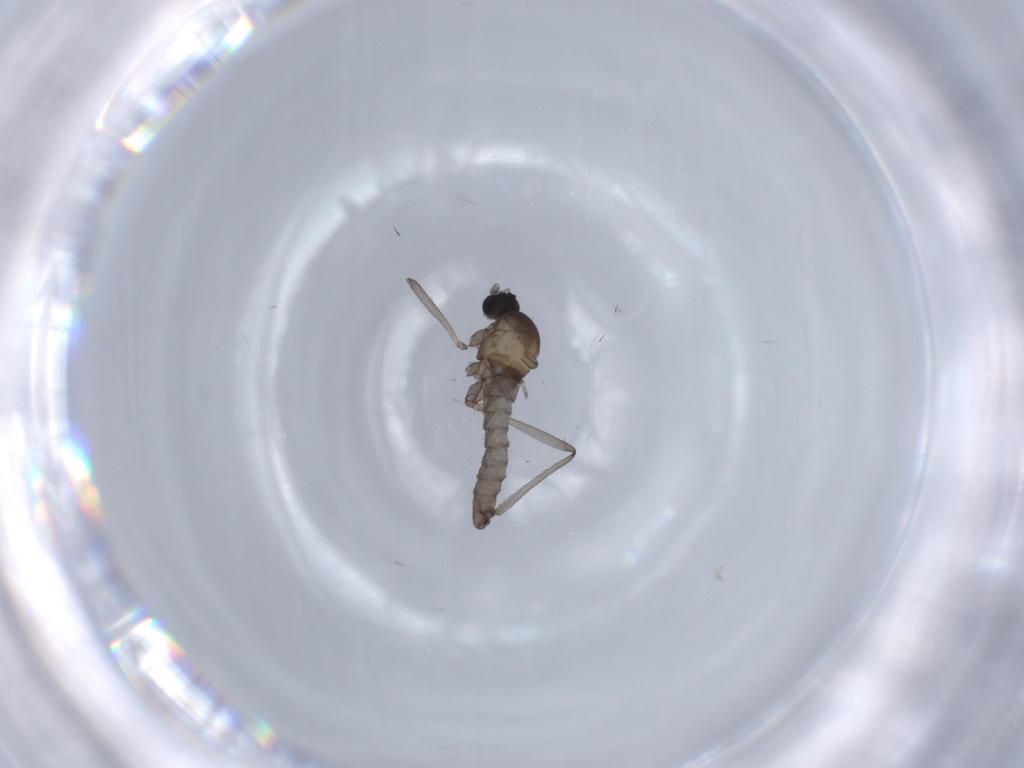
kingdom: Animalia
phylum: Arthropoda
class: Insecta
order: Diptera
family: Cecidomyiidae
